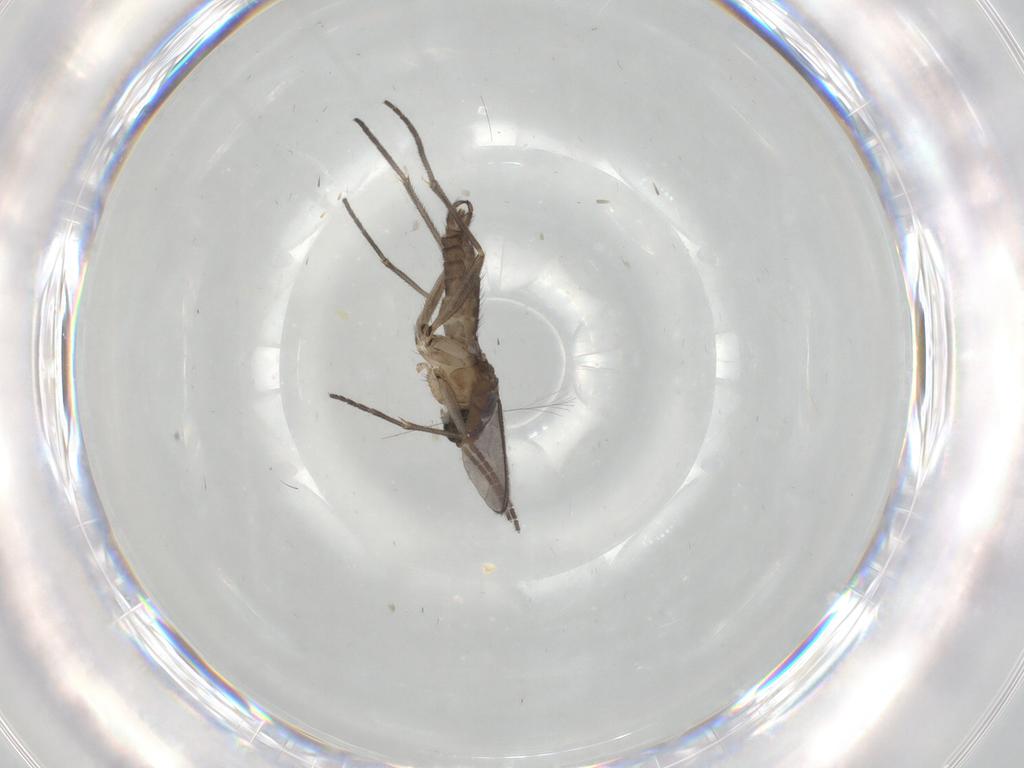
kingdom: Animalia
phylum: Arthropoda
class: Insecta
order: Diptera
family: Sciaridae
